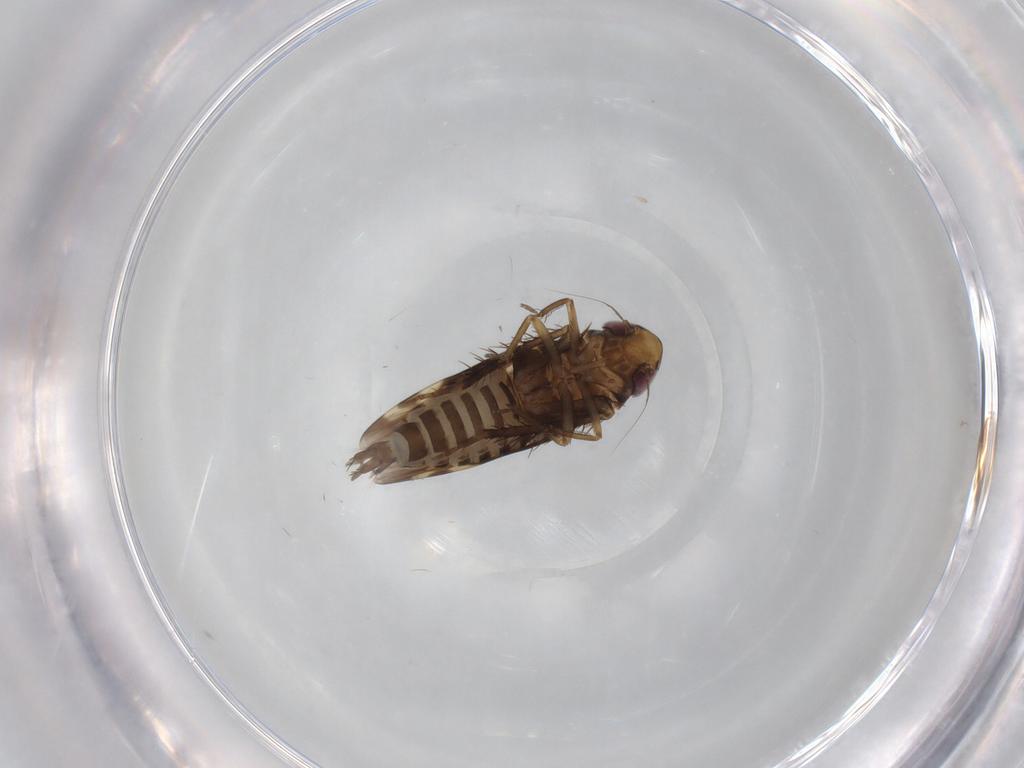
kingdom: Animalia
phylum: Arthropoda
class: Insecta
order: Hemiptera
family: Cicadellidae
